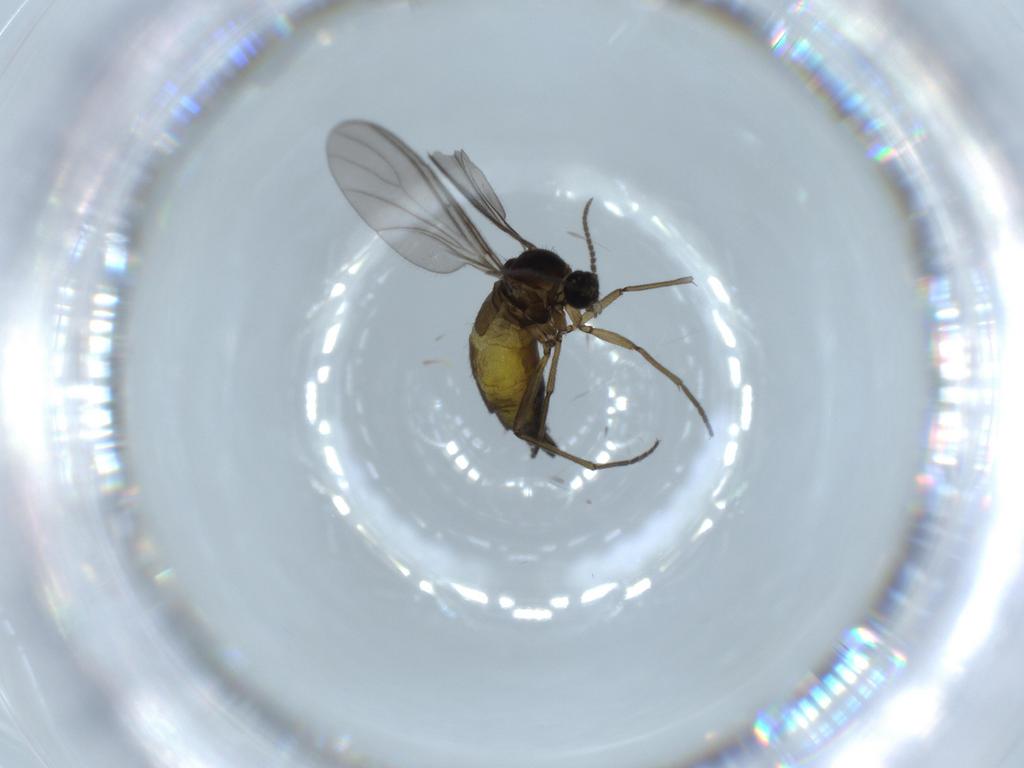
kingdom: Animalia
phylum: Arthropoda
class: Insecta
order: Diptera
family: Sciaridae
